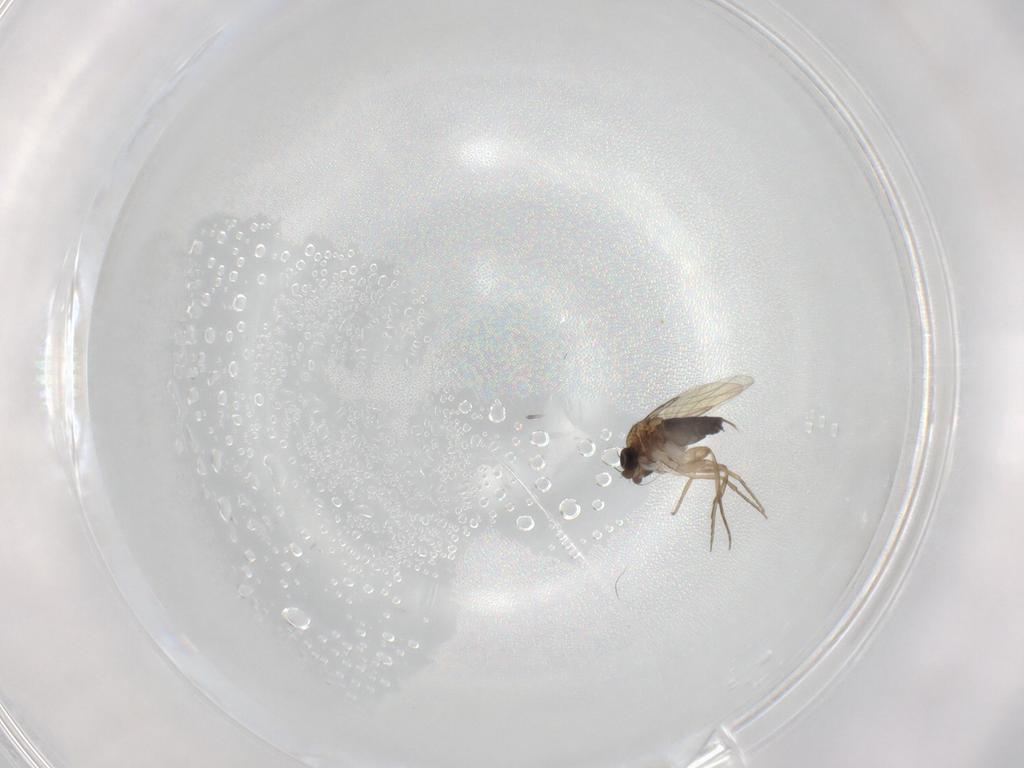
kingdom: Animalia
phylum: Arthropoda
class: Insecta
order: Diptera
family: Phoridae
